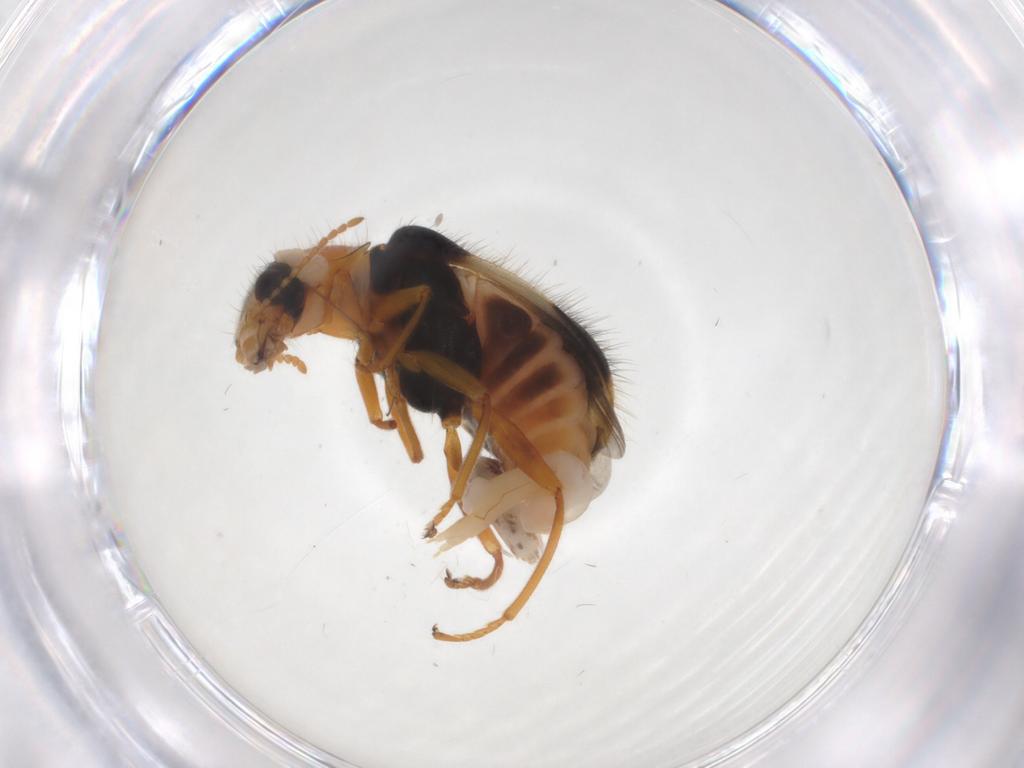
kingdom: Animalia
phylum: Arthropoda
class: Insecta
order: Coleoptera
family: Melyridae
